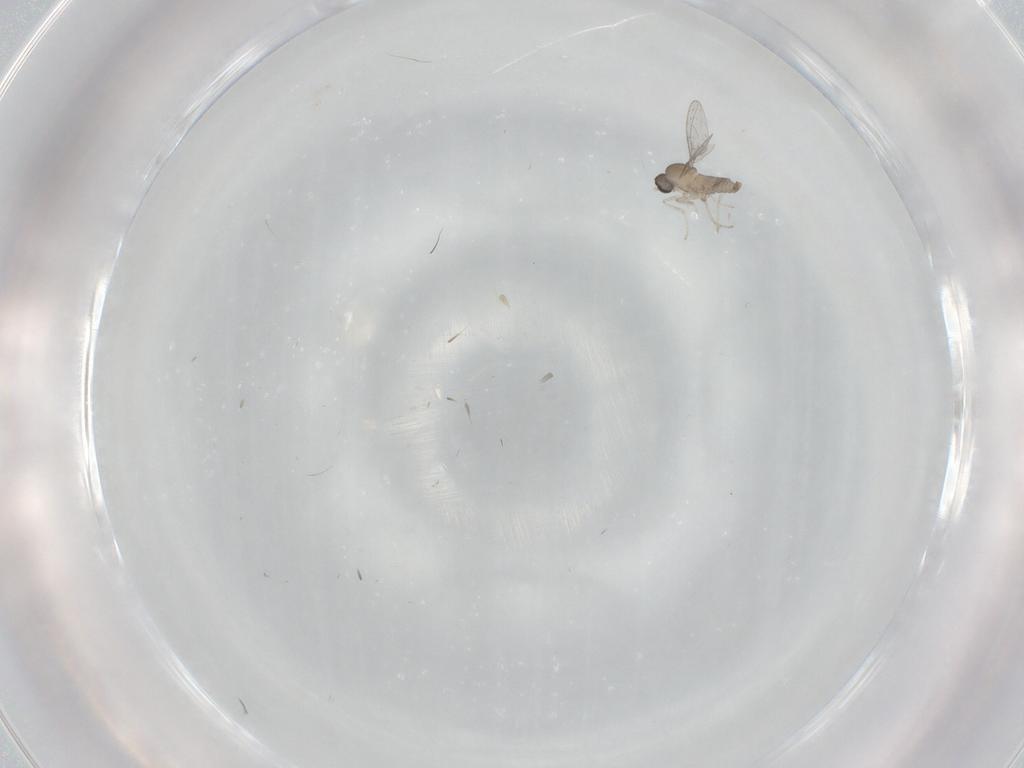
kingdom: Animalia
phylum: Arthropoda
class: Insecta
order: Diptera
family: Cecidomyiidae
